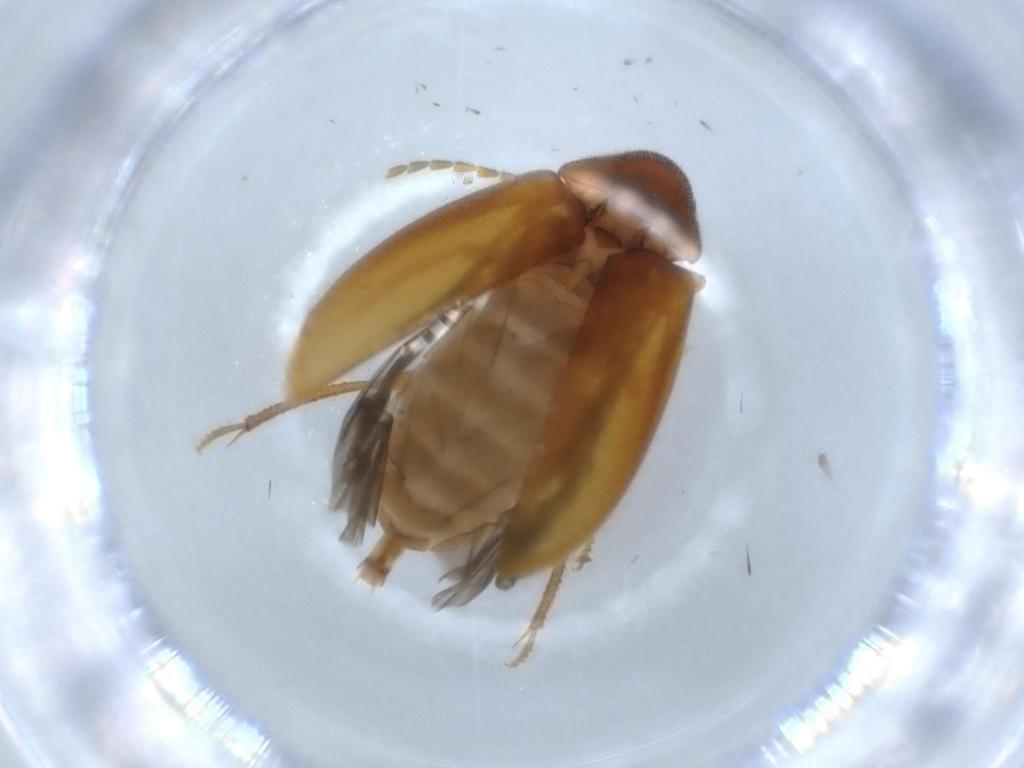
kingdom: Animalia
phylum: Arthropoda
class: Insecta
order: Coleoptera
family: Ptilodactylidae
